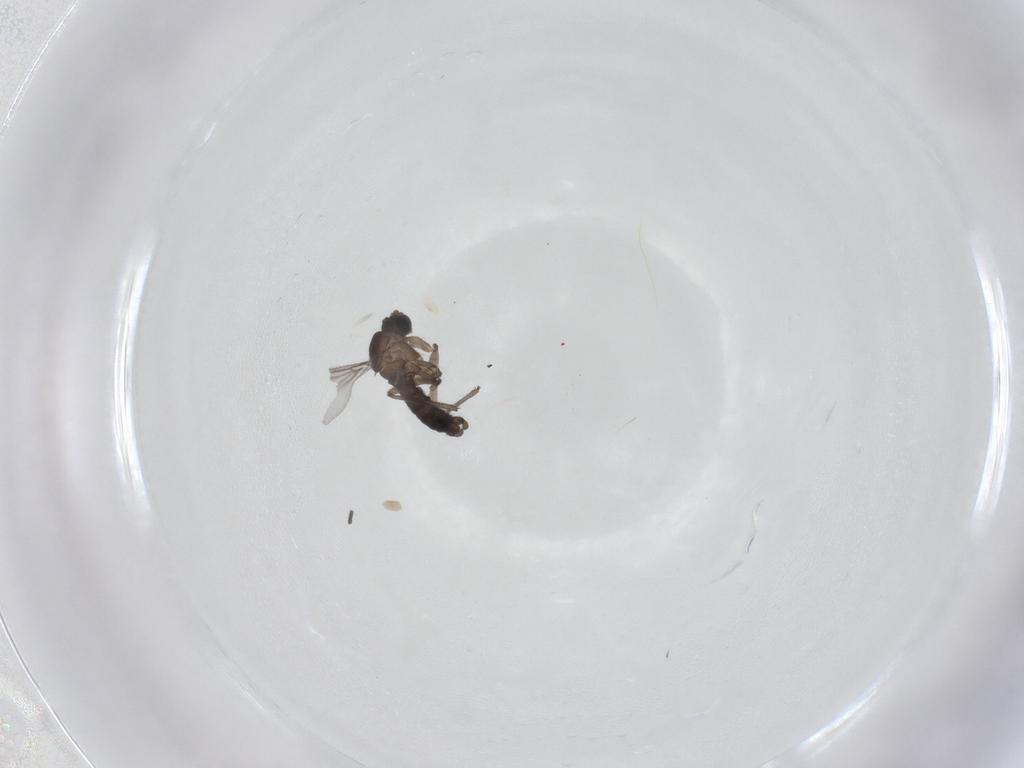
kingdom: Animalia
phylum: Arthropoda
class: Insecta
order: Diptera
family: Sciaridae
